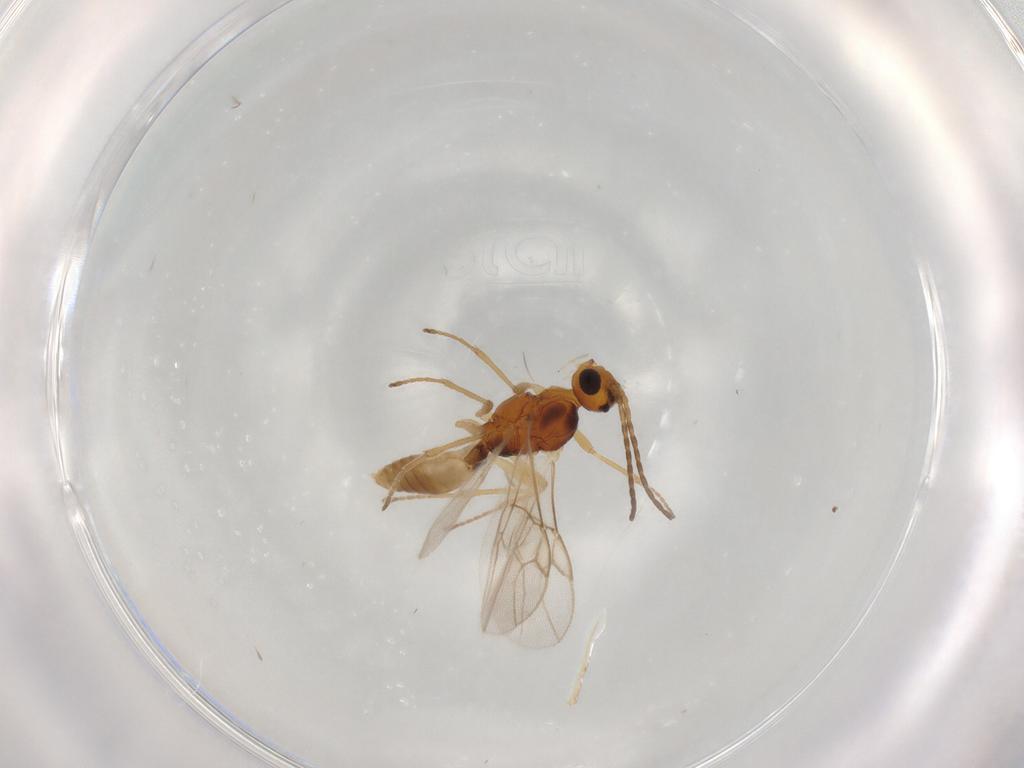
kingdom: Animalia
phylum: Arthropoda
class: Insecta
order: Hymenoptera
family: Braconidae
